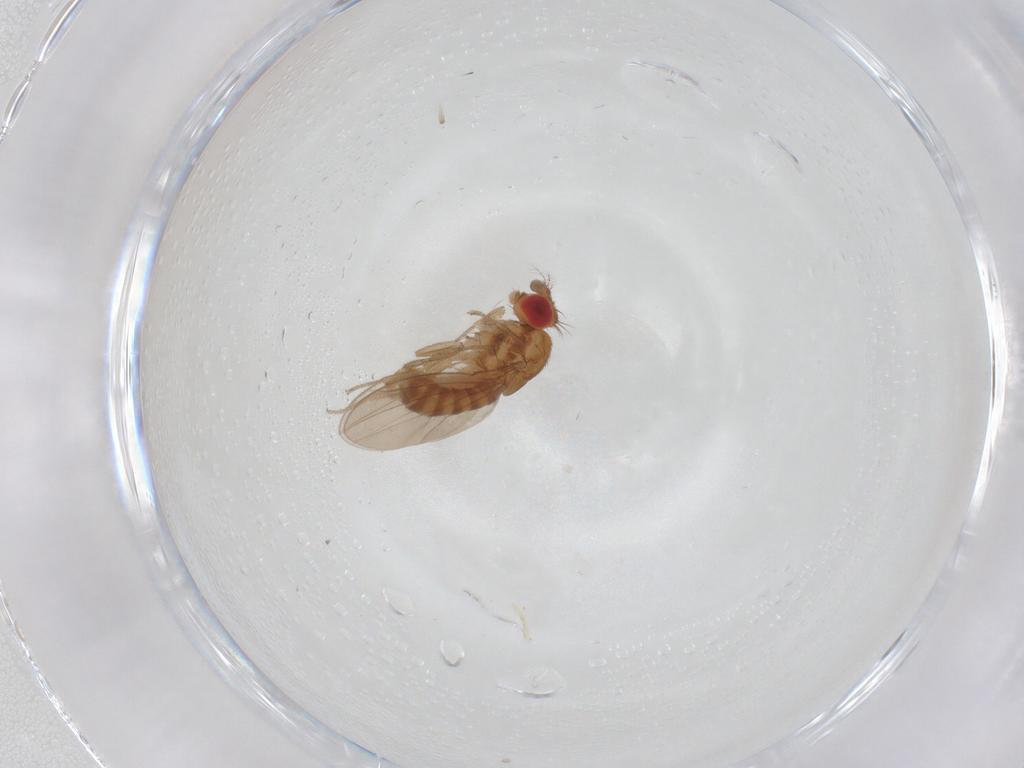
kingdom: Animalia
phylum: Arthropoda
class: Insecta
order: Diptera
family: Ephydridae
